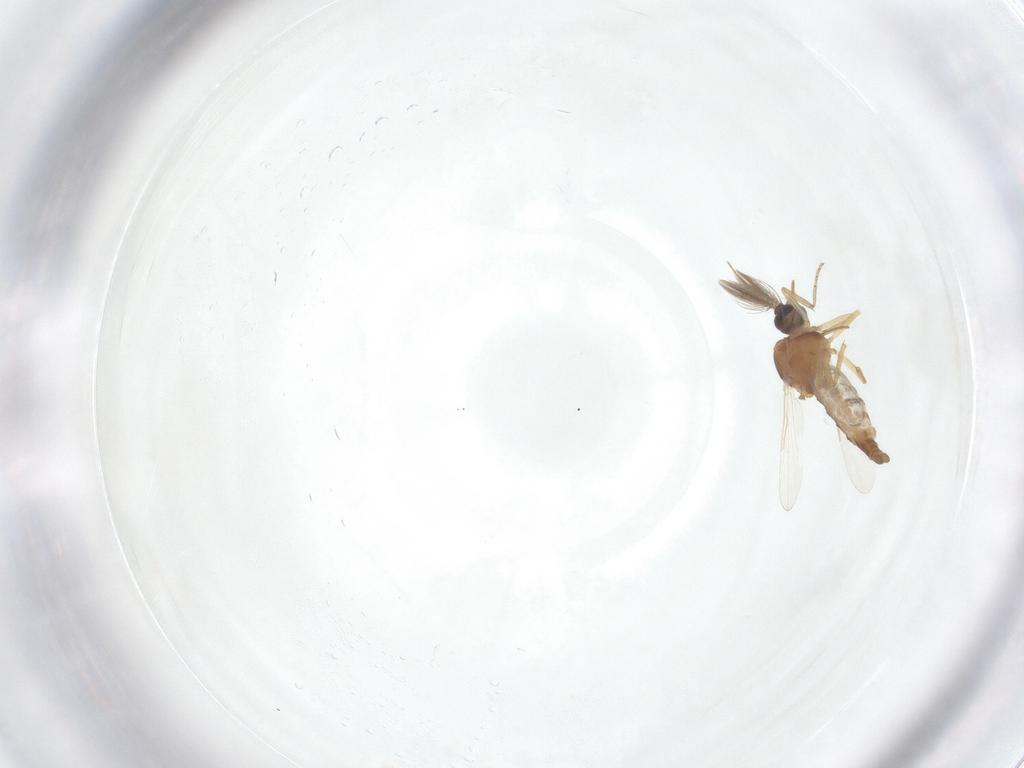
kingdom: Animalia
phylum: Arthropoda
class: Insecta
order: Diptera
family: Ceratopogonidae
